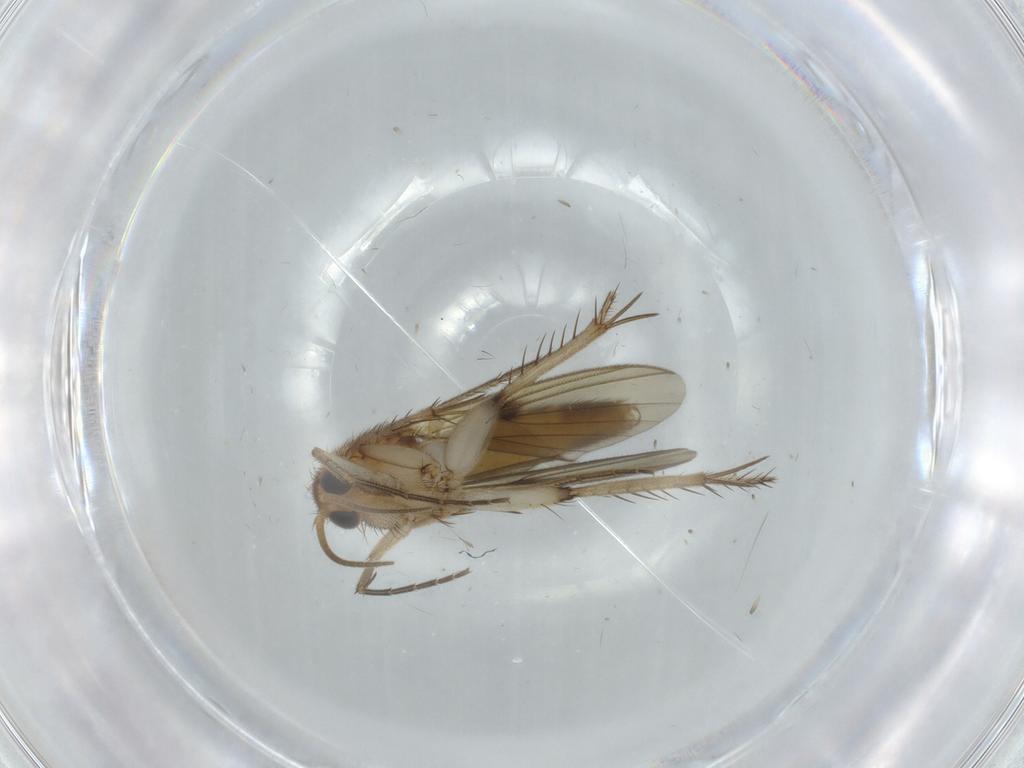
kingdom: Animalia
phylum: Arthropoda
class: Insecta
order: Diptera
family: Sciaridae
